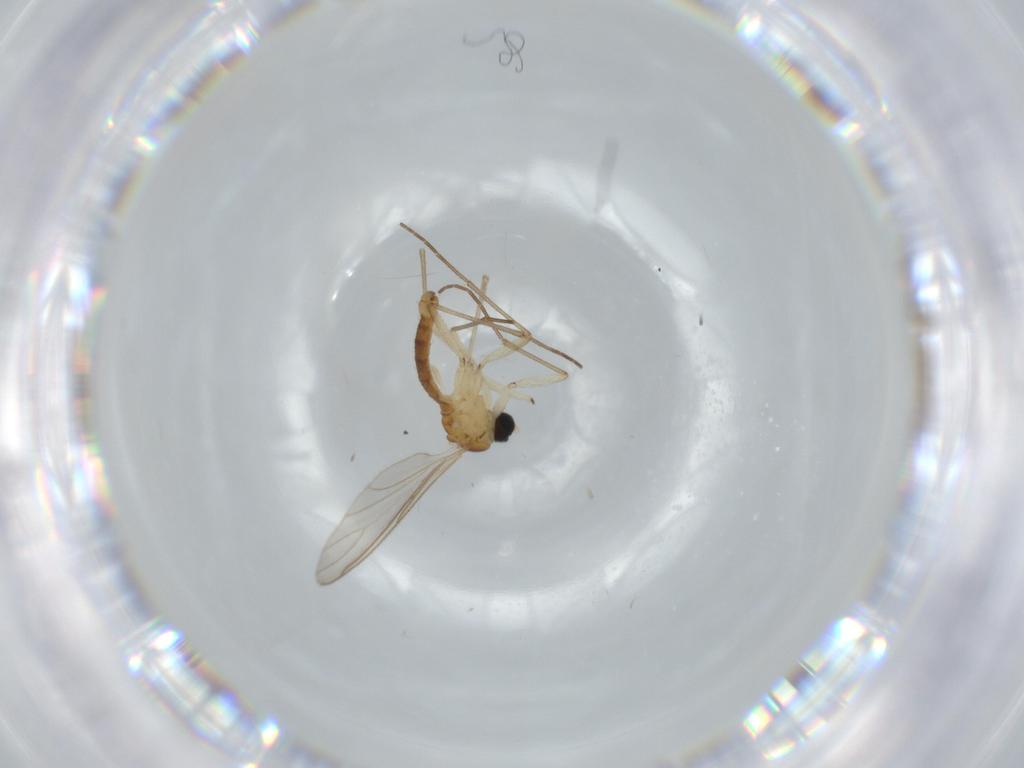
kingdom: Animalia
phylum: Arthropoda
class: Insecta
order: Diptera
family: Sciaridae
